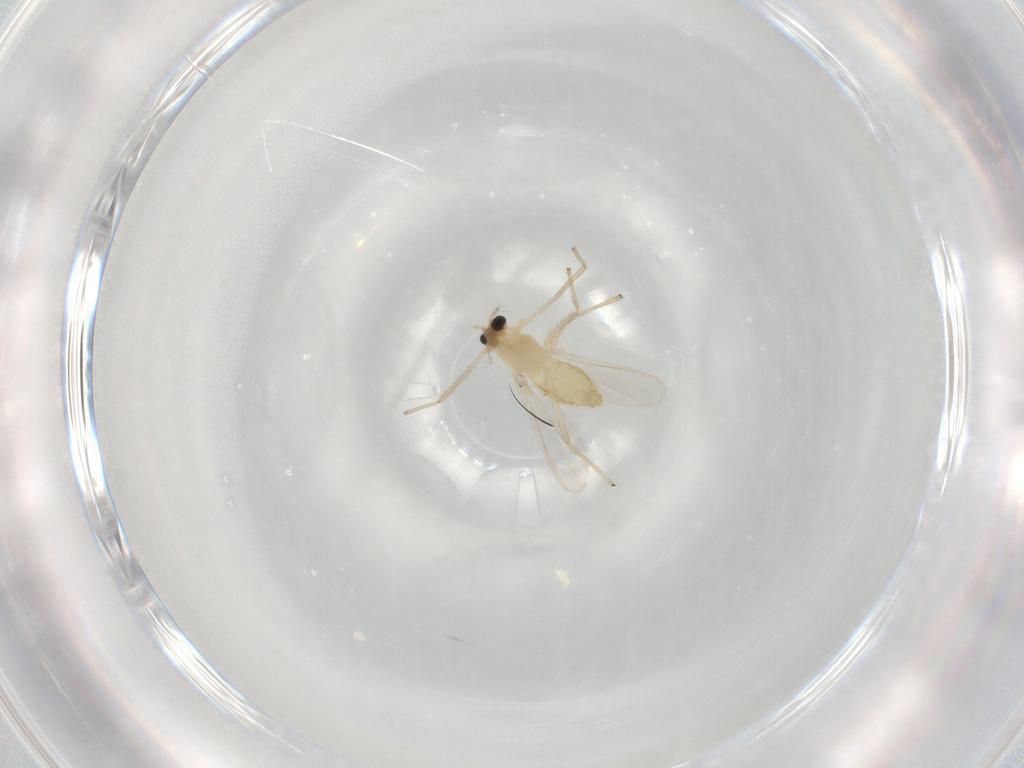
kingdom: Animalia
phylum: Arthropoda
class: Insecta
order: Diptera
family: Chironomidae
